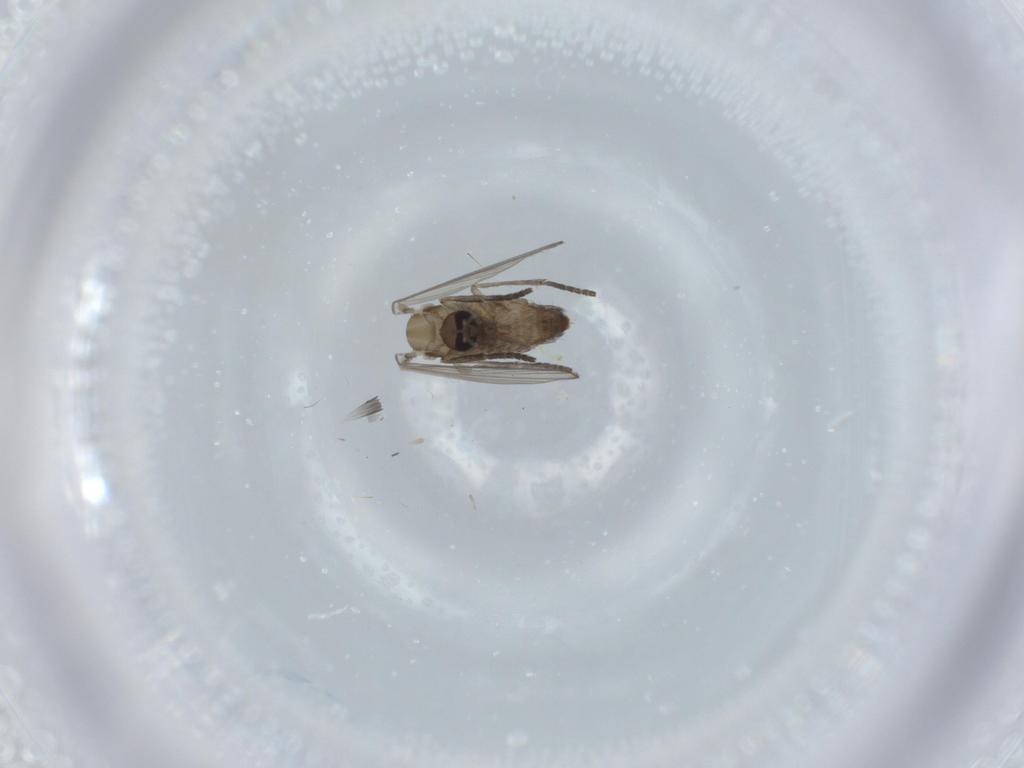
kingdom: Animalia
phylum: Arthropoda
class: Insecta
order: Diptera
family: Psychodidae
